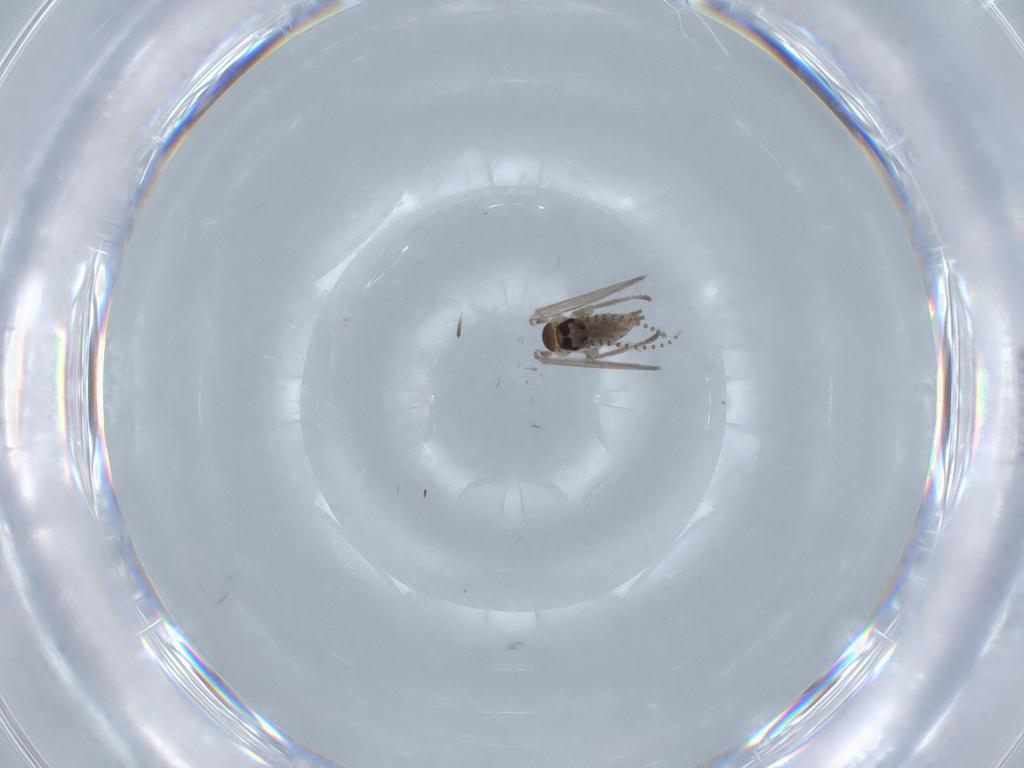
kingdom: Animalia
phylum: Arthropoda
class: Insecta
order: Diptera
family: Psychodidae
